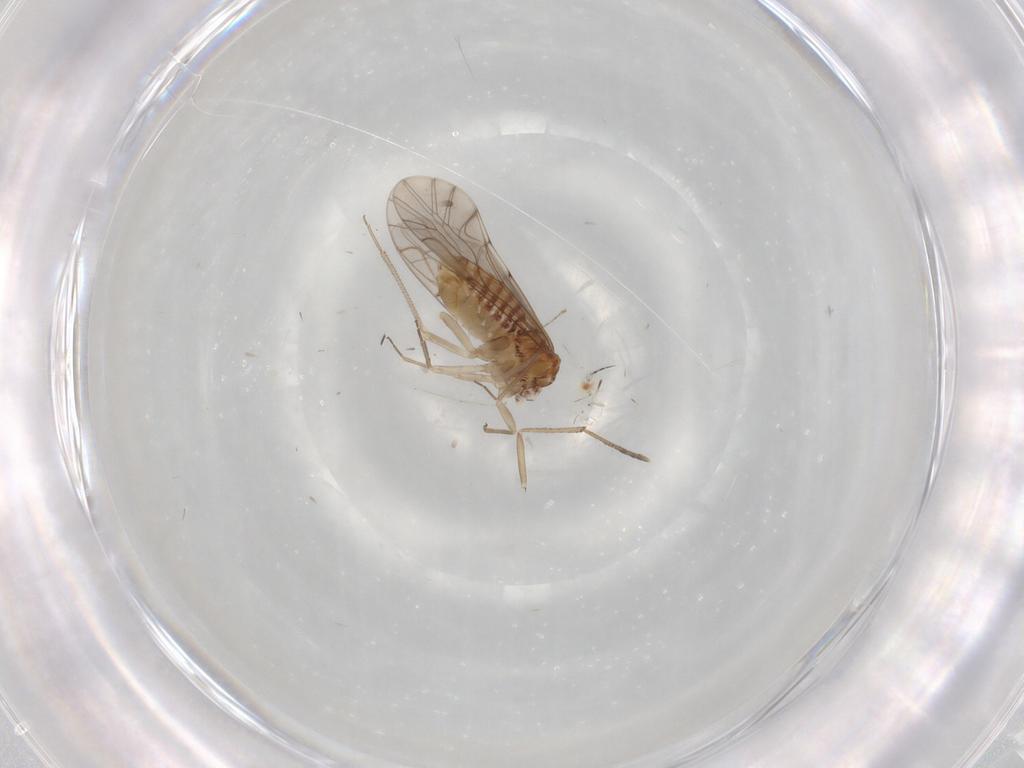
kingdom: Animalia
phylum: Arthropoda
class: Insecta
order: Psocodea
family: Lachesillidae
